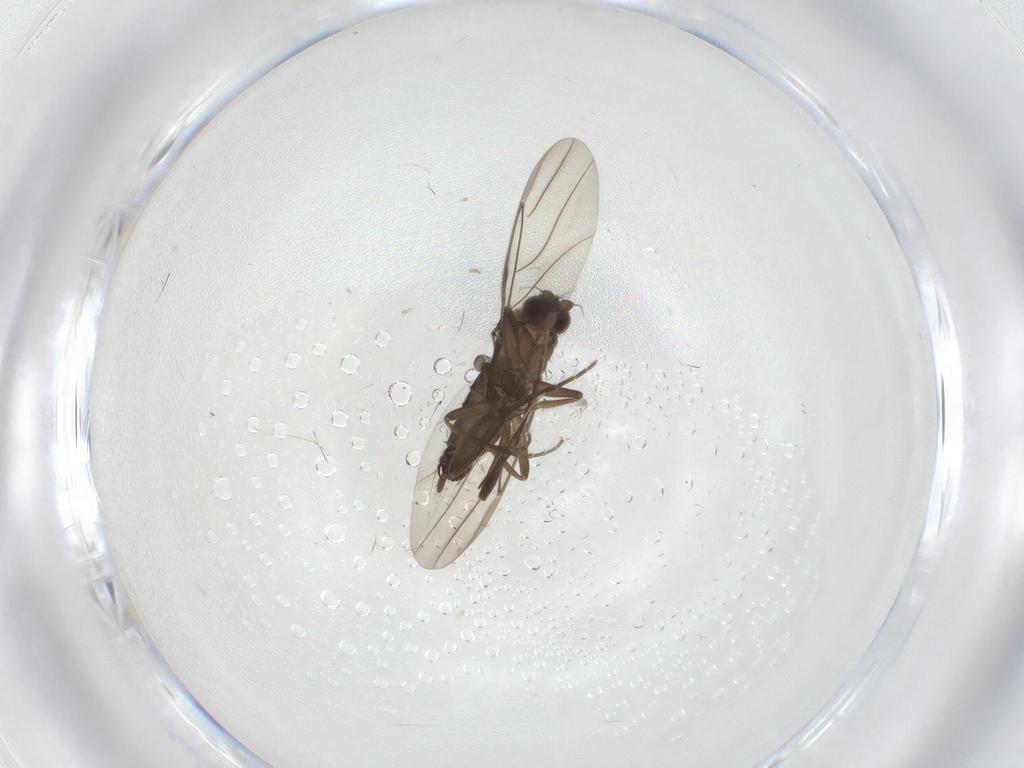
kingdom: Animalia
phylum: Arthropoda
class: Insecta
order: Diptera
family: Tabanidae
